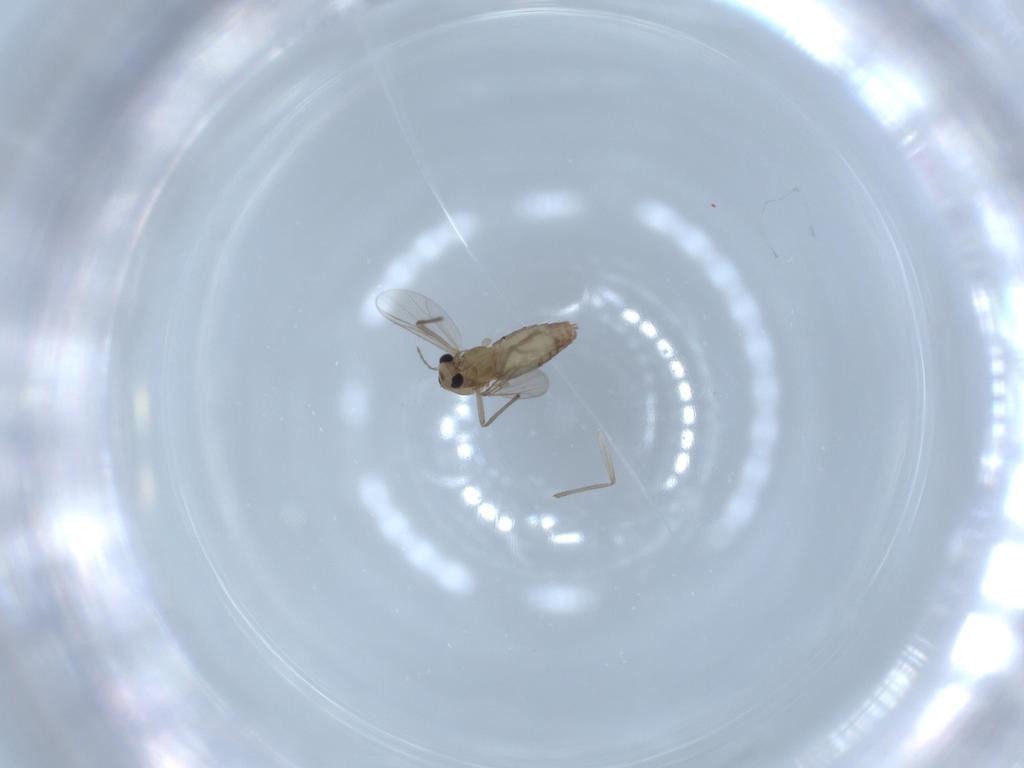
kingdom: Animalia
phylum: Arthropoda
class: Insecta
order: Diptera
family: Chironomidae
